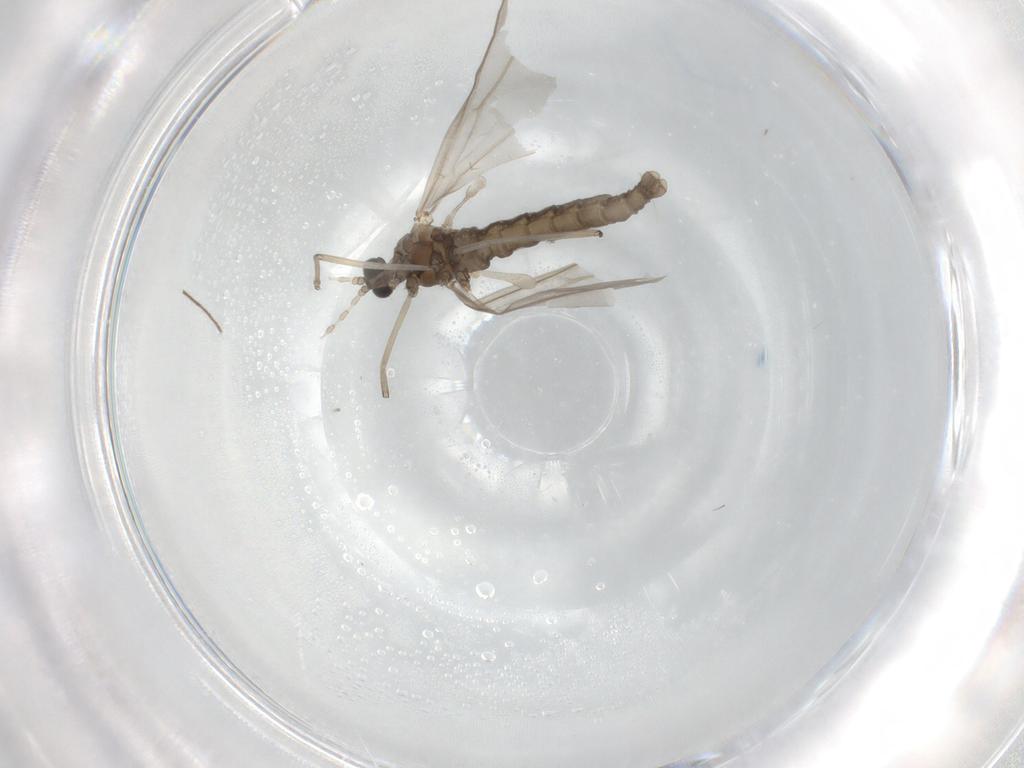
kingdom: Animalia
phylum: Arthropoda
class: Insecta
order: Diptera
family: Cecidomyiidae
